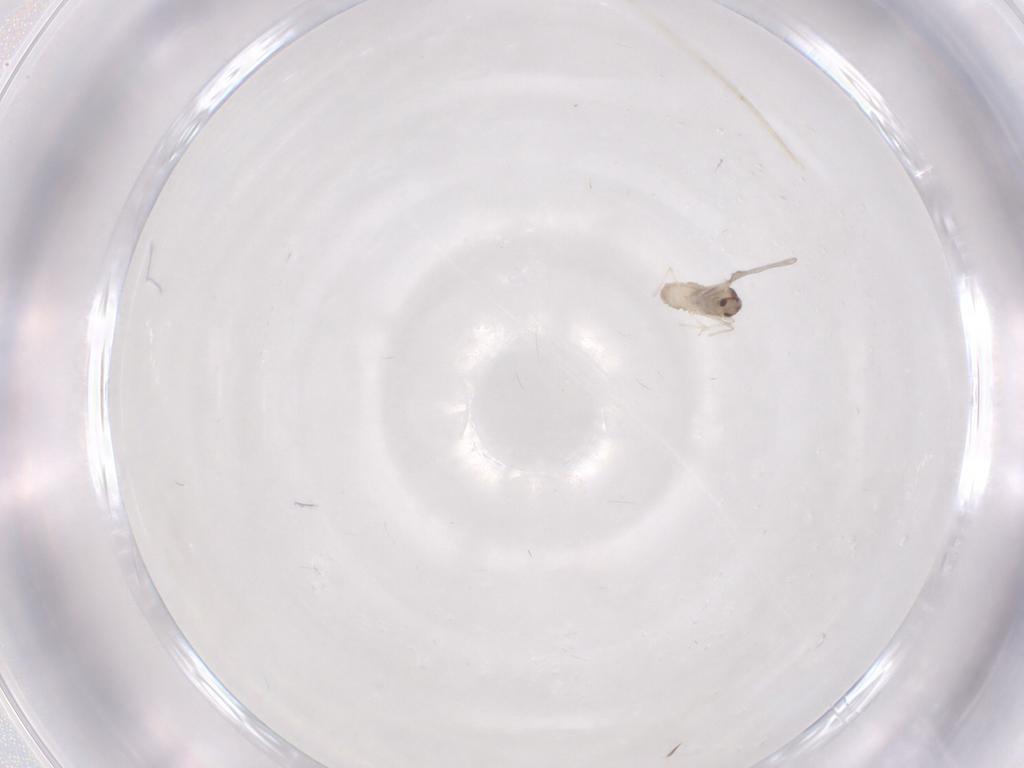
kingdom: Animalia
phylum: Arthropoda
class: Insecta
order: Diptera
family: Cecidomyiidae
